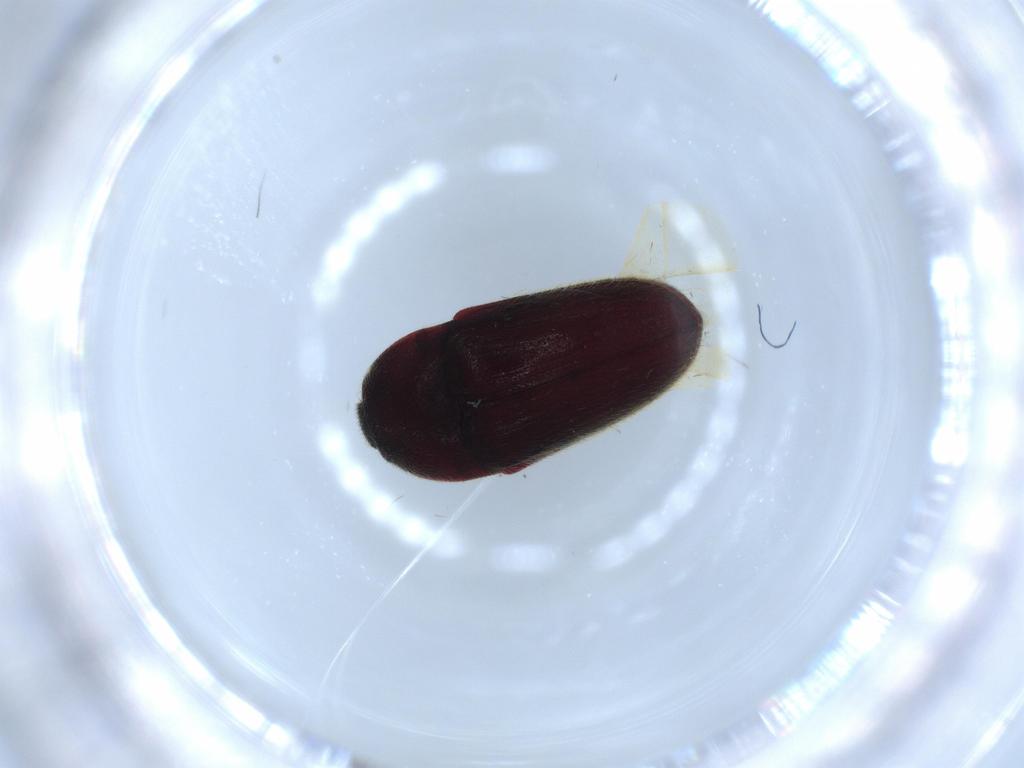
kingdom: Animalia
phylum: Arthropoda
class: Insecta
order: Coleoptera
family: Throscidae
